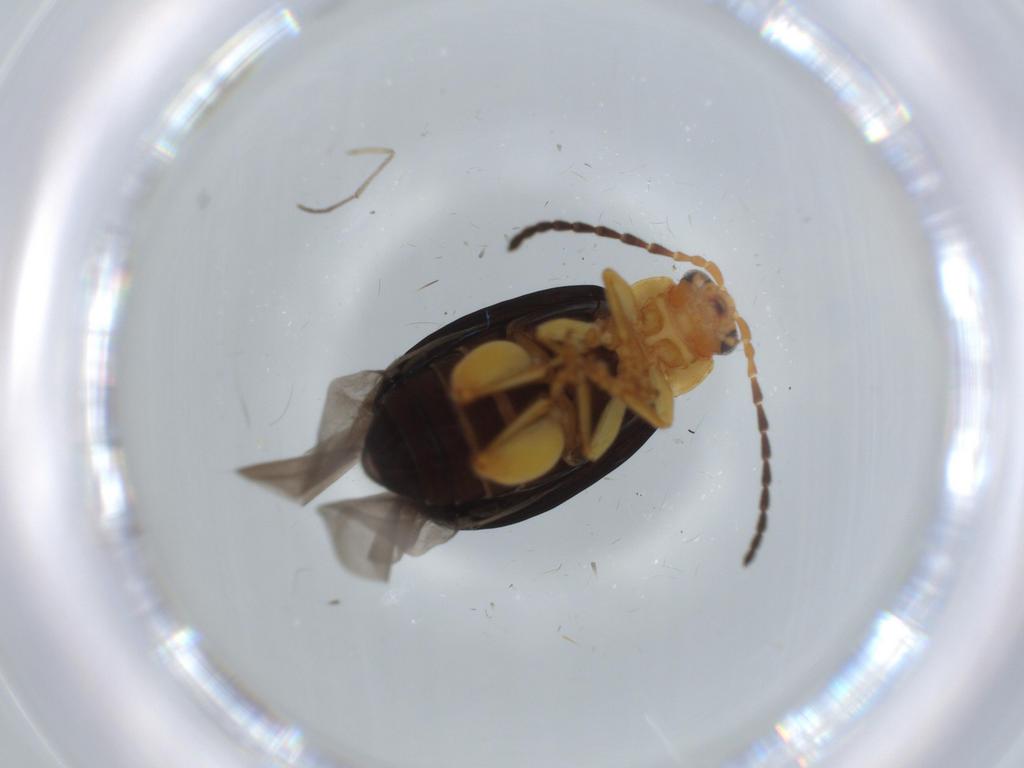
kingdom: Animalia
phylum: Arthropoda
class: Insecta
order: Coleoptera
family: Chrysomelidae
